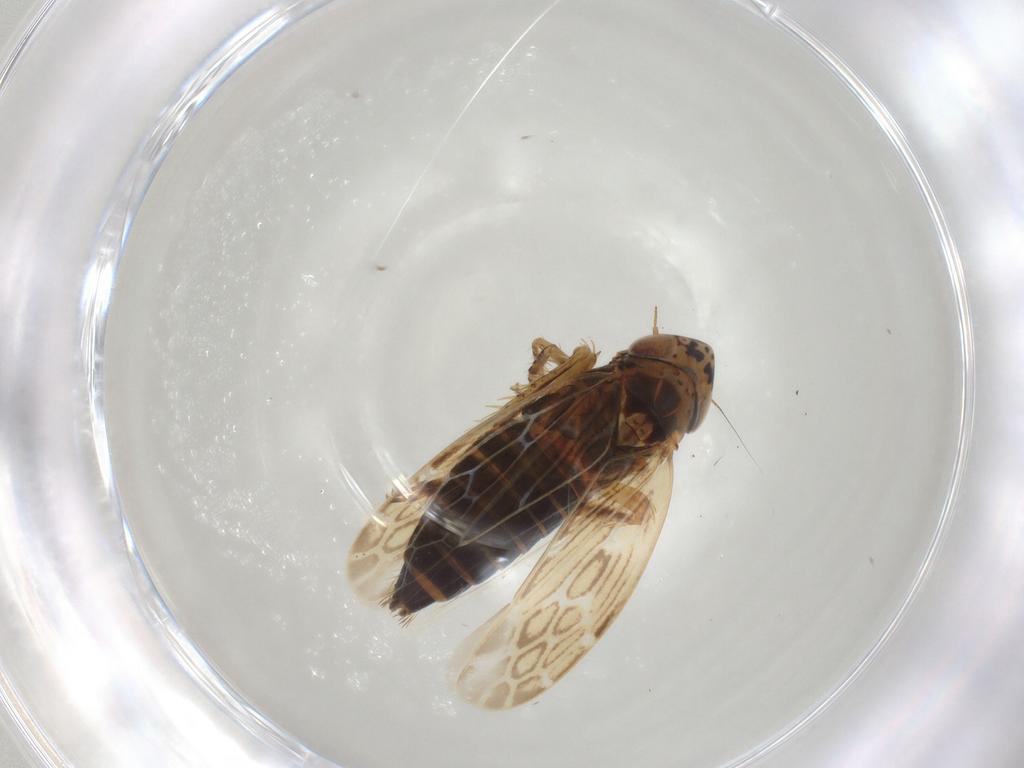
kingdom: Animalia
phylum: Arthropoda
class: Insecta
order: Hemiptera
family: Cicadellidae
